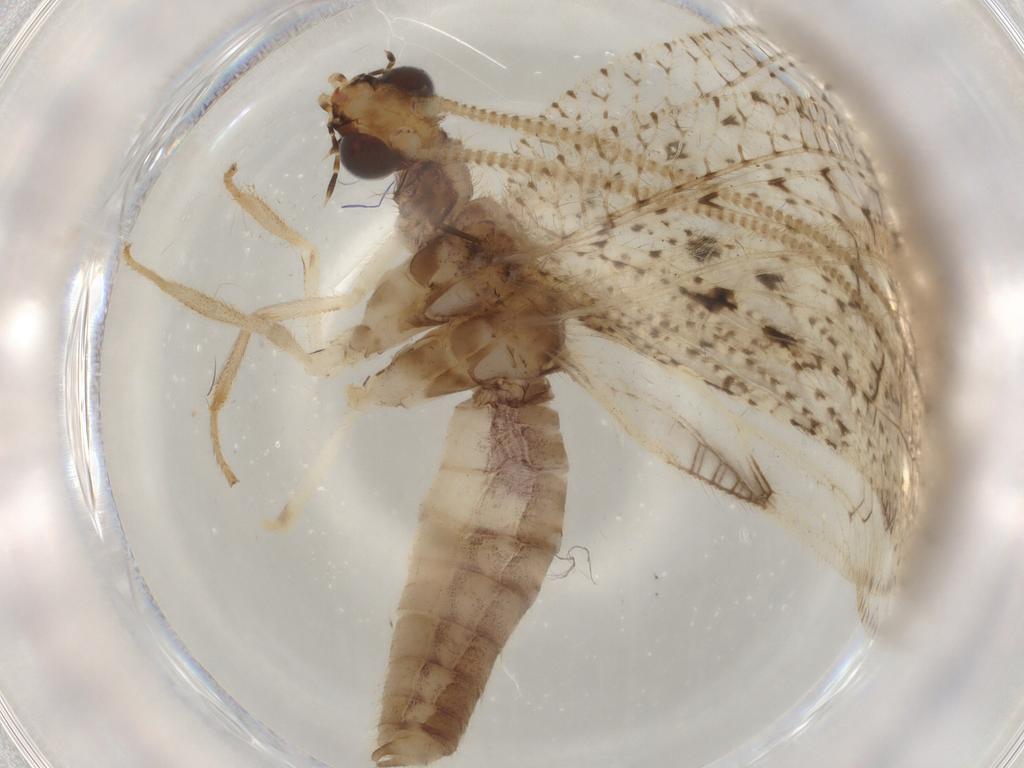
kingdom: Animalia
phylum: Arthropoda
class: Insecta
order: Neuroptera
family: Hemerobiidae
